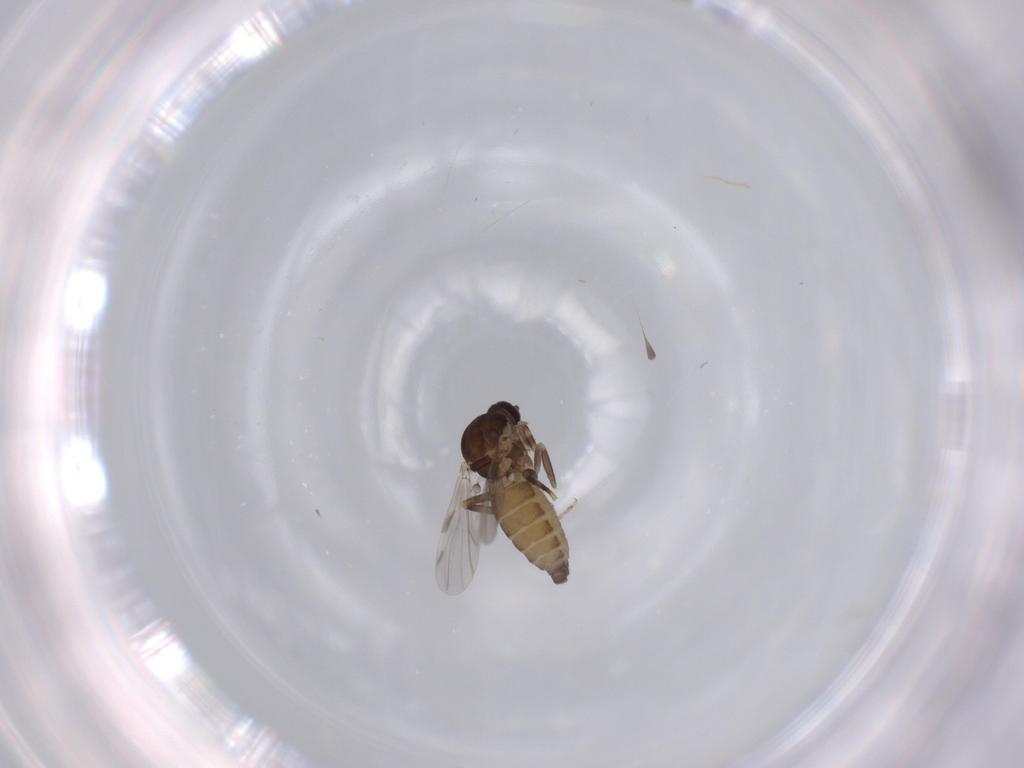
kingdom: Animalia
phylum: Arthropoda
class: Insecta
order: Diptera
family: Ceratopogonidae
